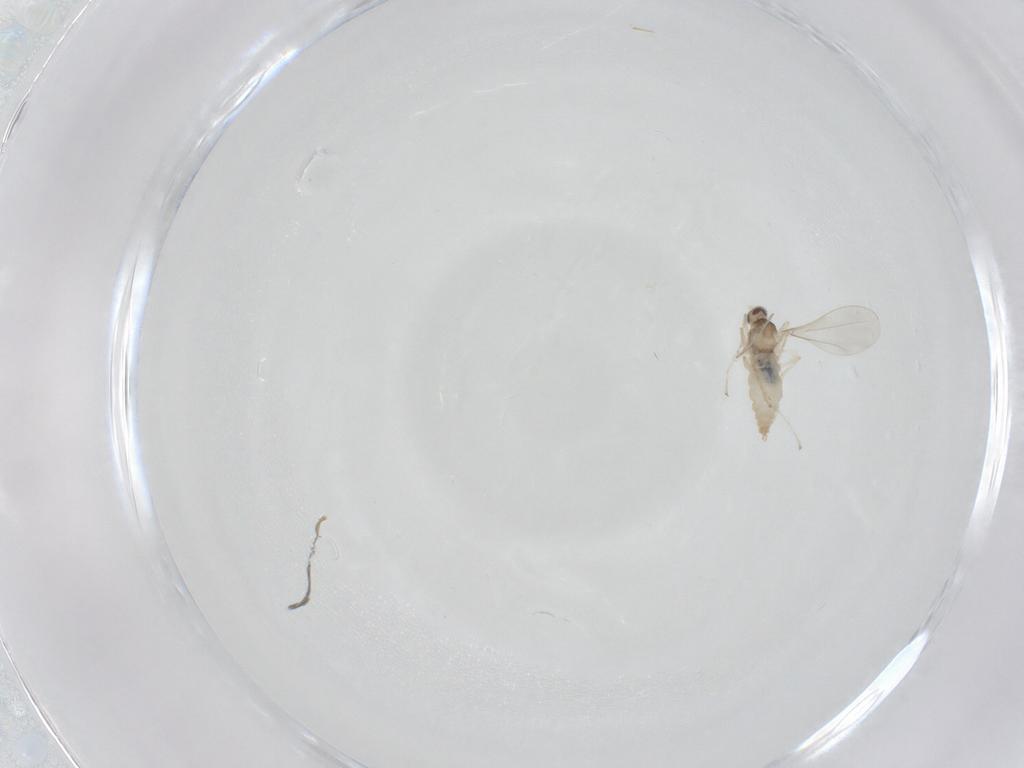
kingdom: Animalia
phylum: Arthropoda
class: Insecta
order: Diptera
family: Cecidomyiidae
